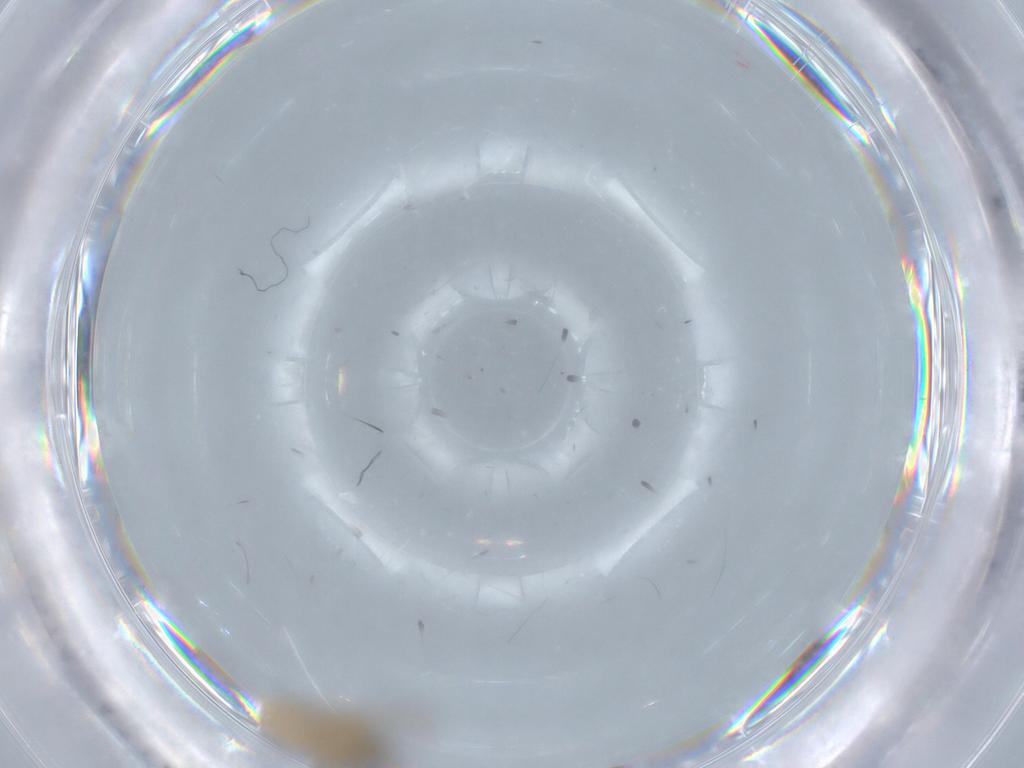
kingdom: Animalia
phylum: Arthropoda
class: Insecta
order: Diptera
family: Ceratopogonidae
